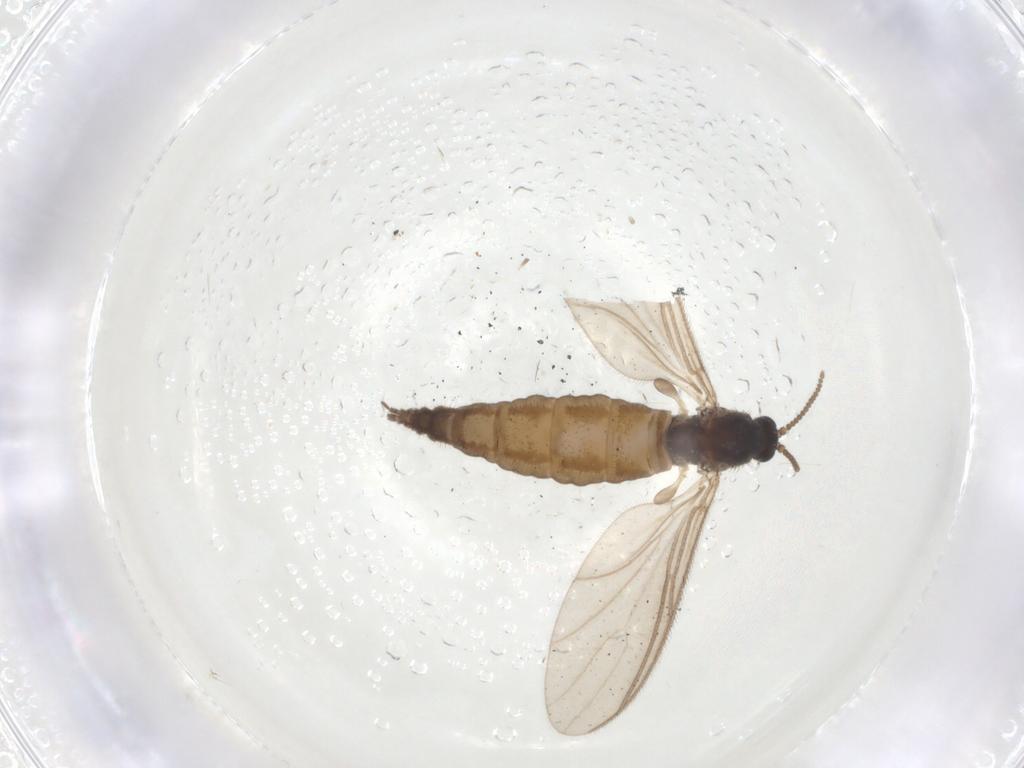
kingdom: Animalia
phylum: Arthropoda
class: Insecta
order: Diptera
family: Sciaridae
